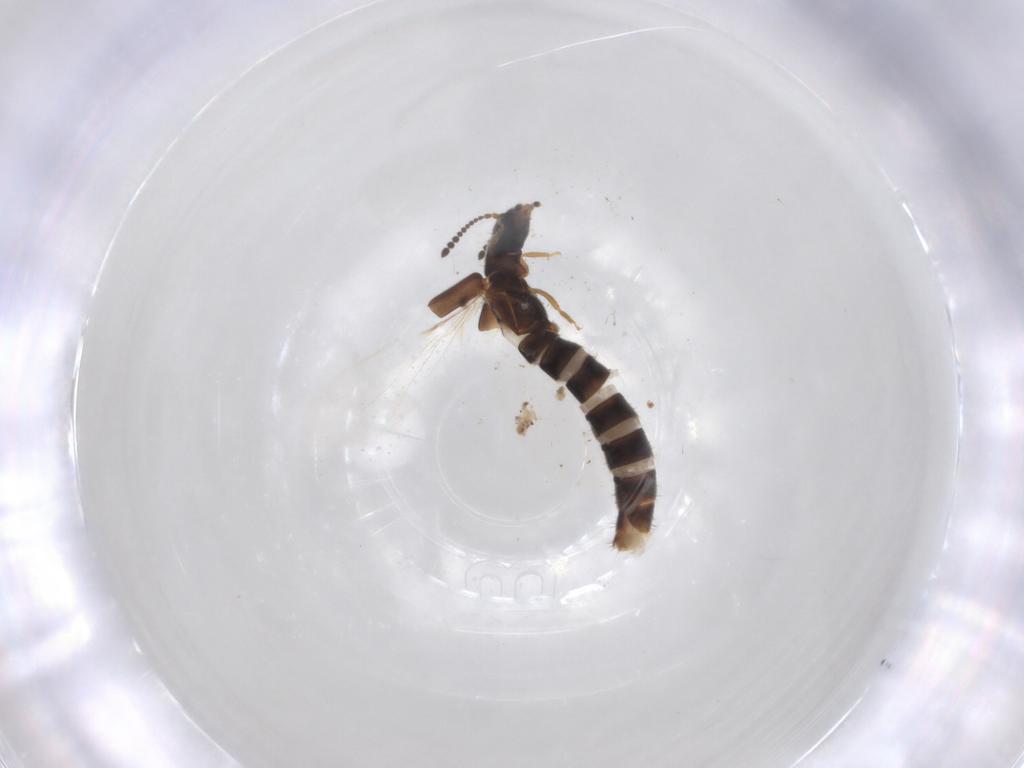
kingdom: Animalia
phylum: Arthropoda
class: Insecta
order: Coleoptera
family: Staphylinidae
